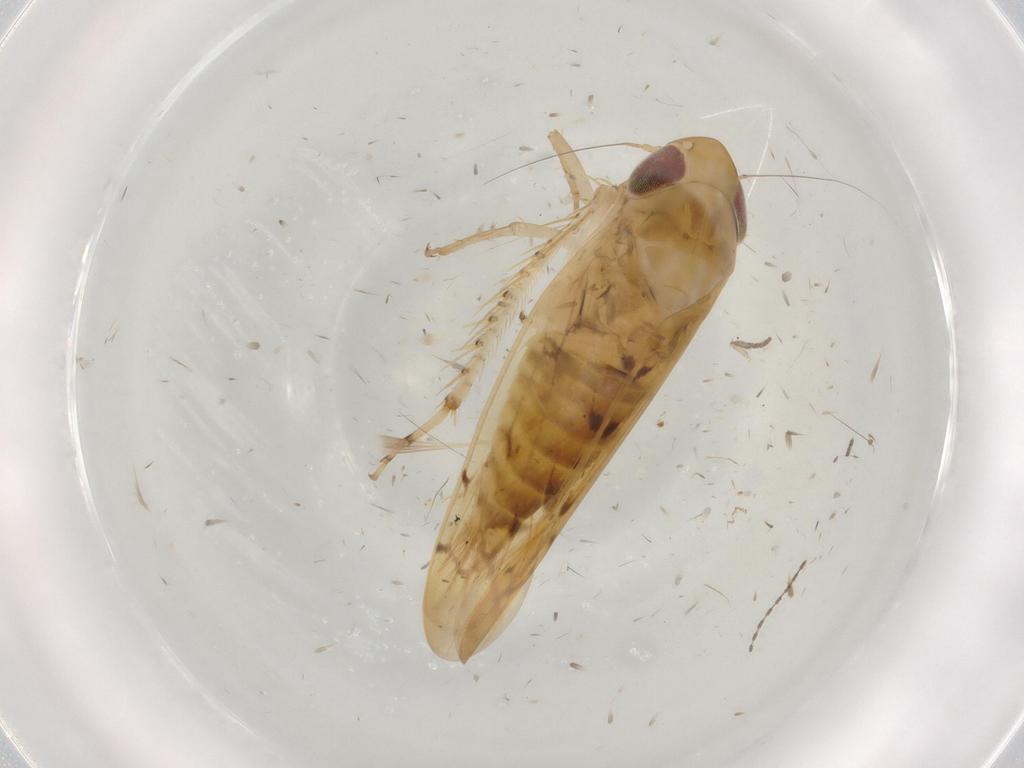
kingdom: Animalia
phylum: Arthropoda
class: Insecta
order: Hemiptera
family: Cicadellidae
